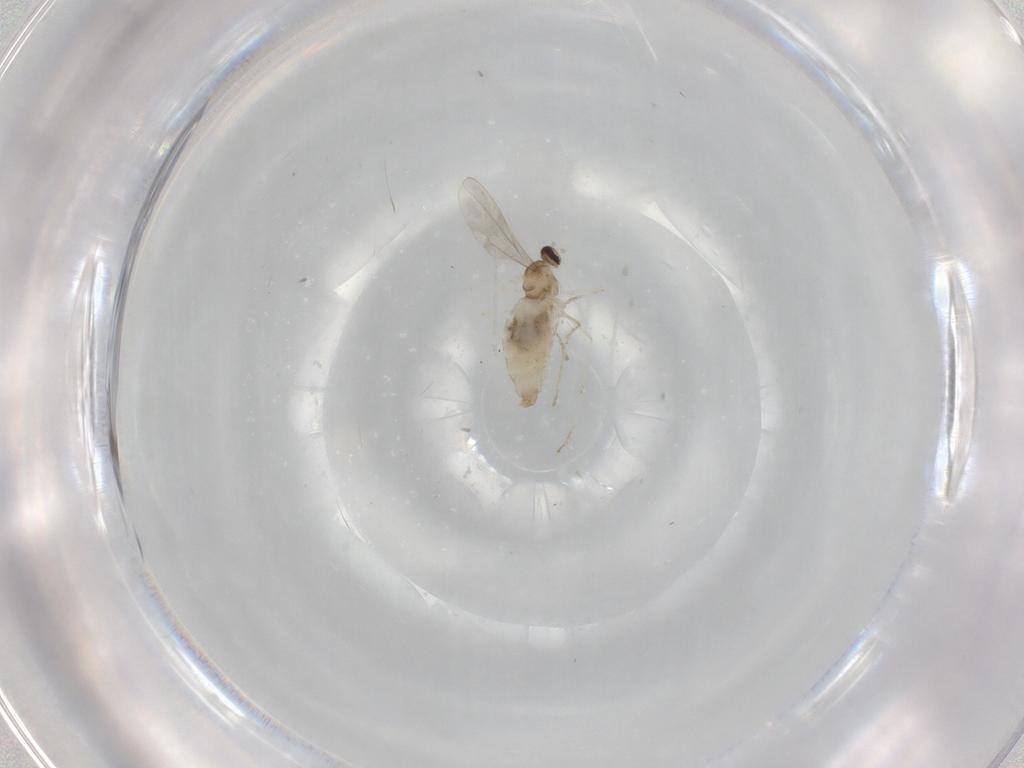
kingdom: Animalia
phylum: Arthropoda
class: Insecta
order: Diptera
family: Cecidomyiidae
